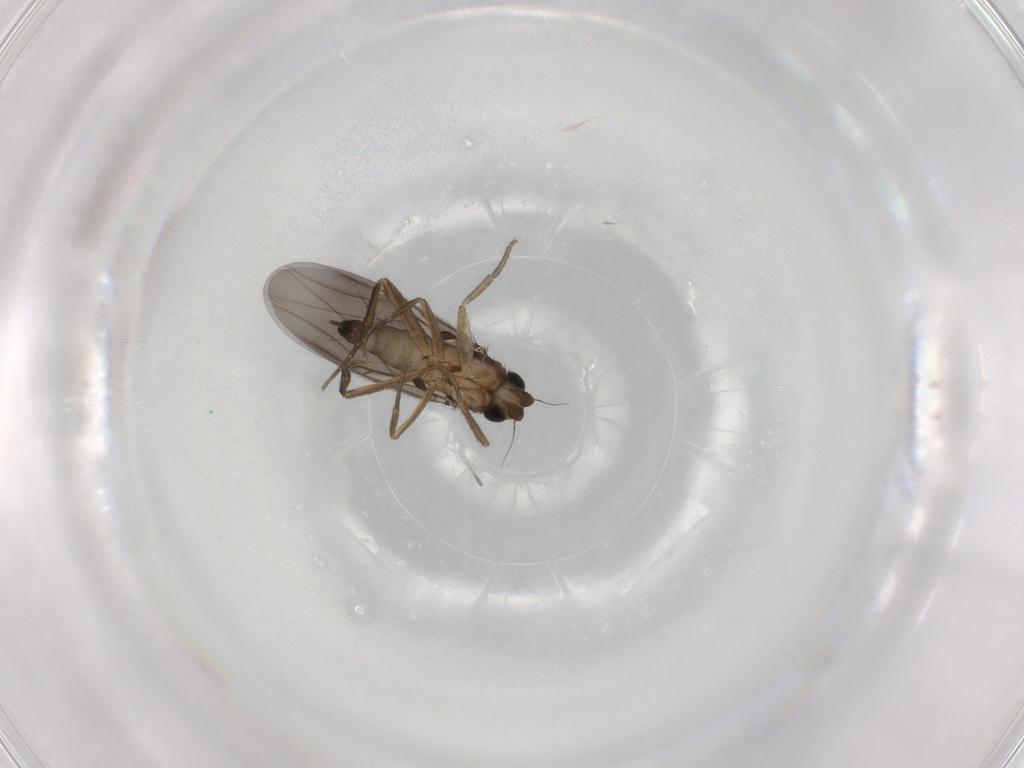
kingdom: Animalia
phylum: Arthropoda
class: Insecta
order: Diptera
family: Phoridae
